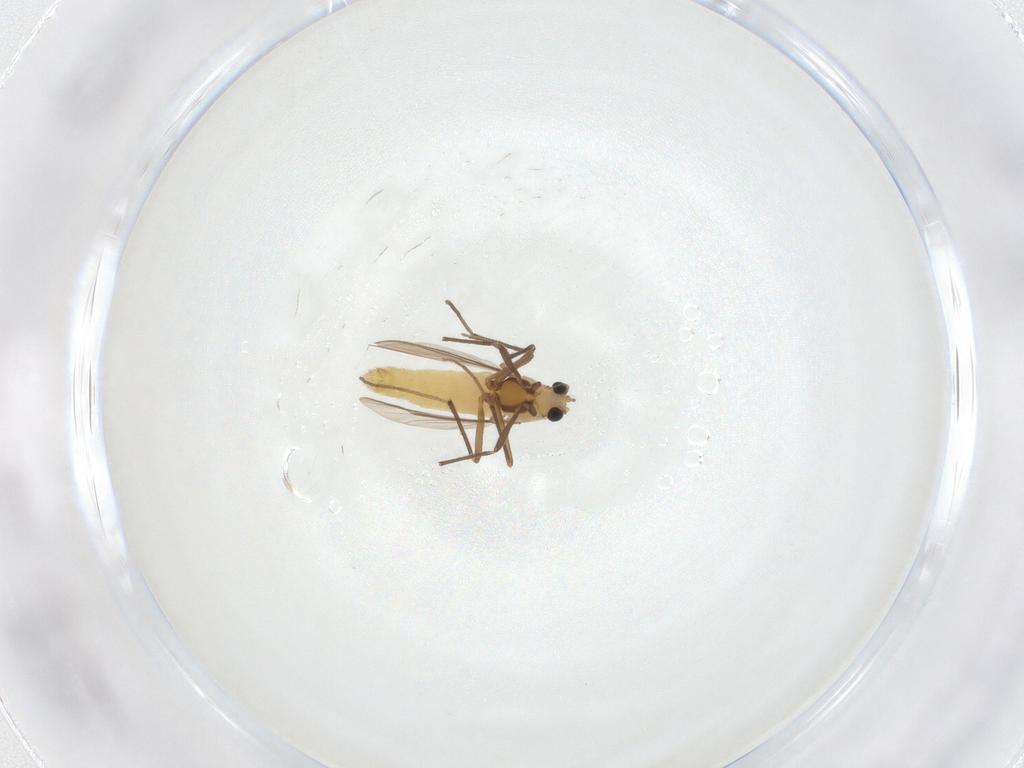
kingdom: Animalia
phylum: Arthropoda
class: Insecta
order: Diptera
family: Chironomidae
